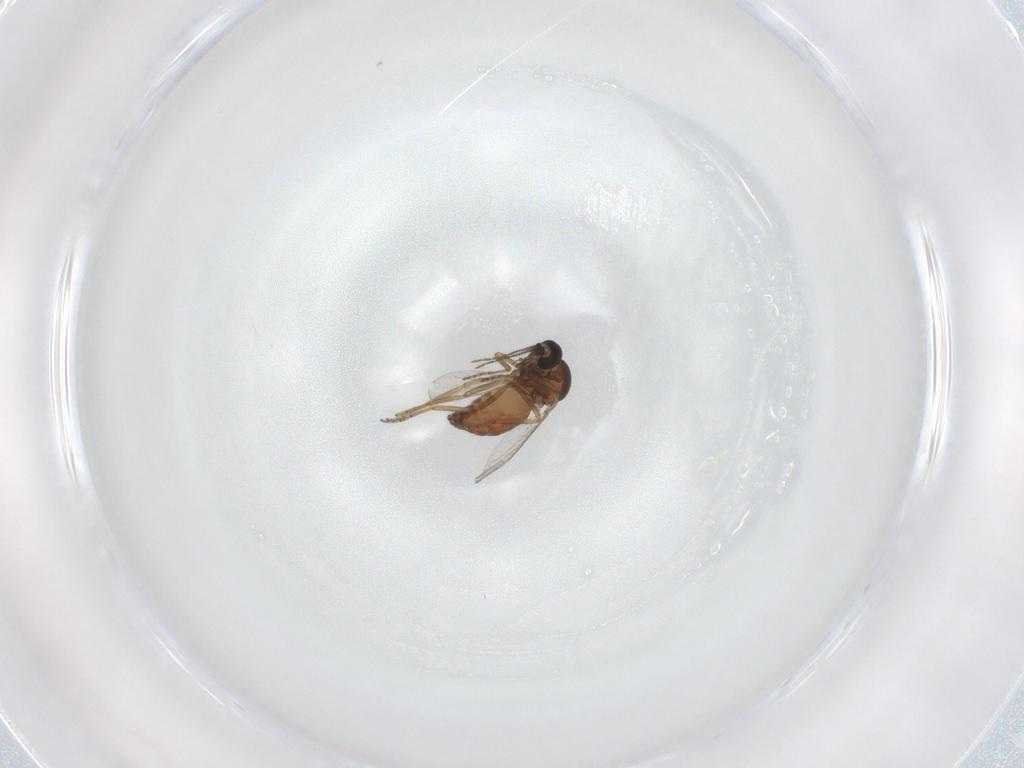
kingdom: Animalia
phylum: Arthropoda
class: Insecta
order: Diptera
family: Cecidomyiidae
